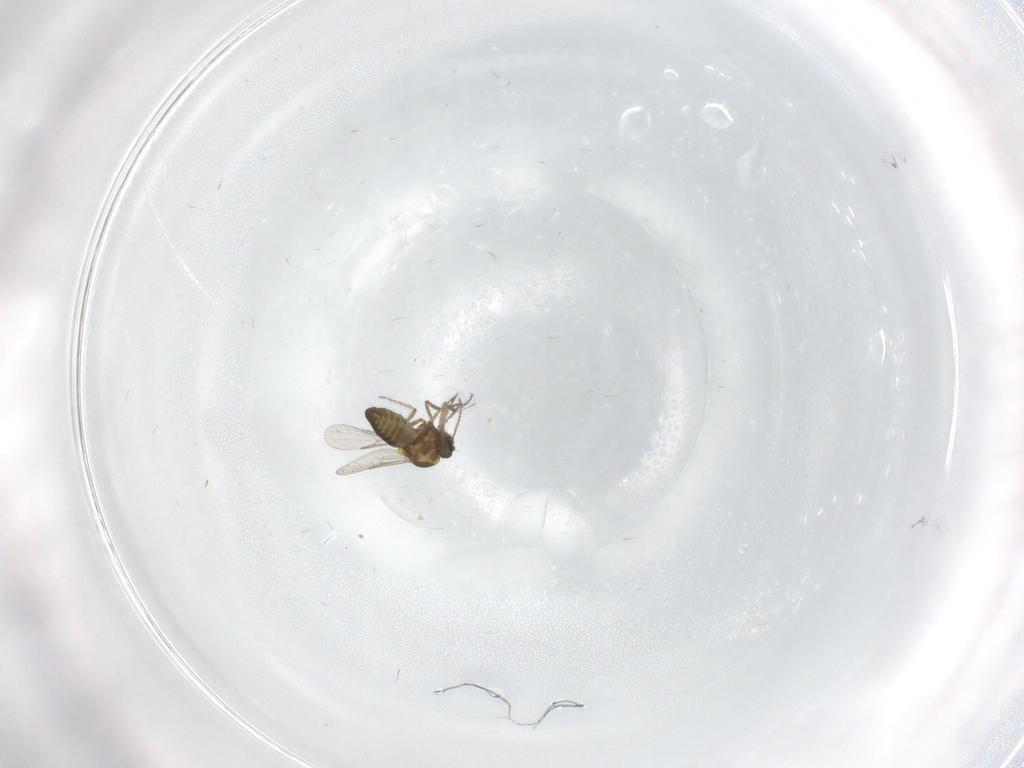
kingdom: Animalia
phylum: Arthropoda
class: Insecta
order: Diptera
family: Ceratopogonidae
